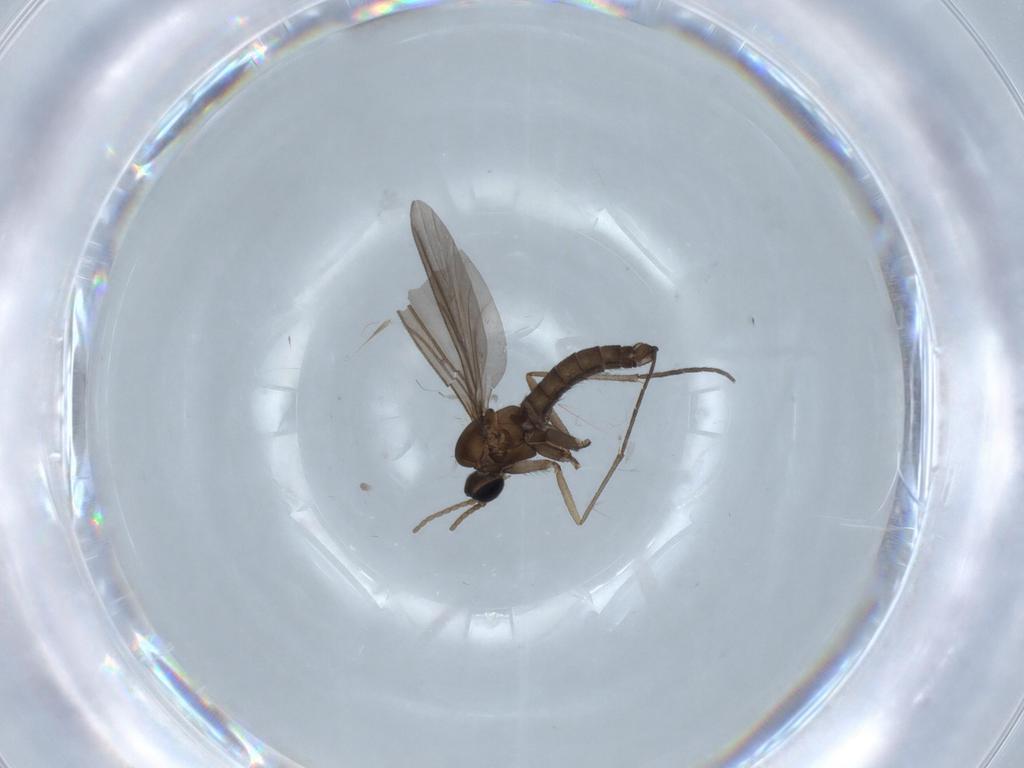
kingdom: Animalia
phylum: Arthropoda
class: Insecta
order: Diptera
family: Sciaridae
